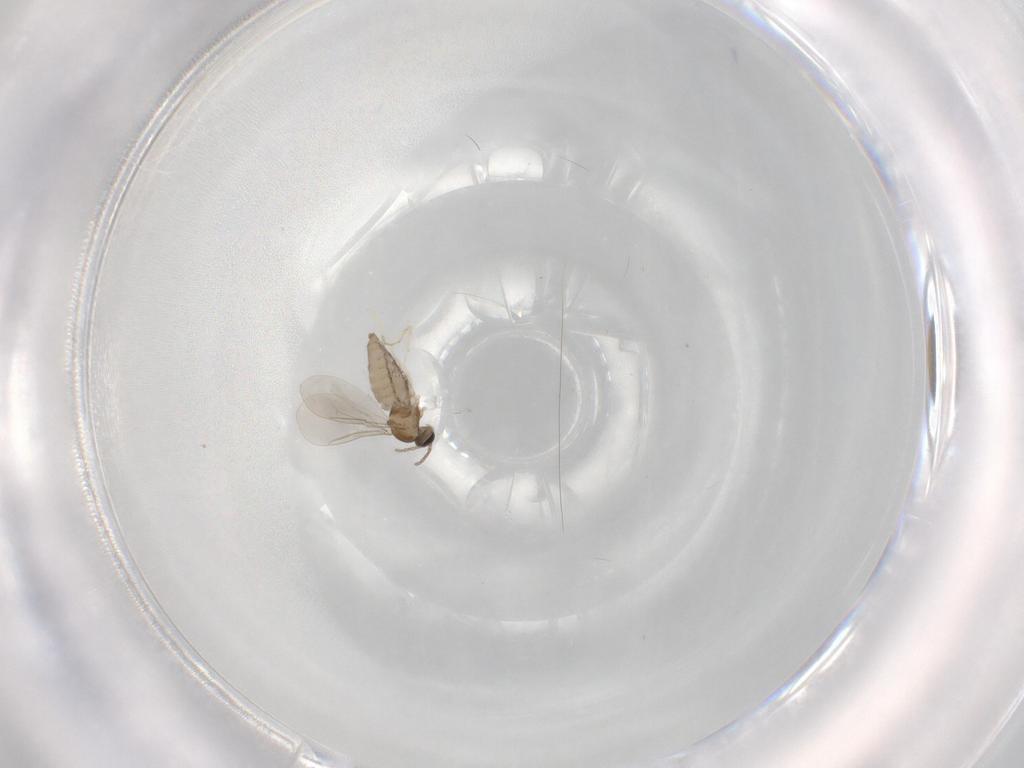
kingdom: Animalia
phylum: Arthropoda
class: Insecta
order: Diptera
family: Cecidomyiidae
